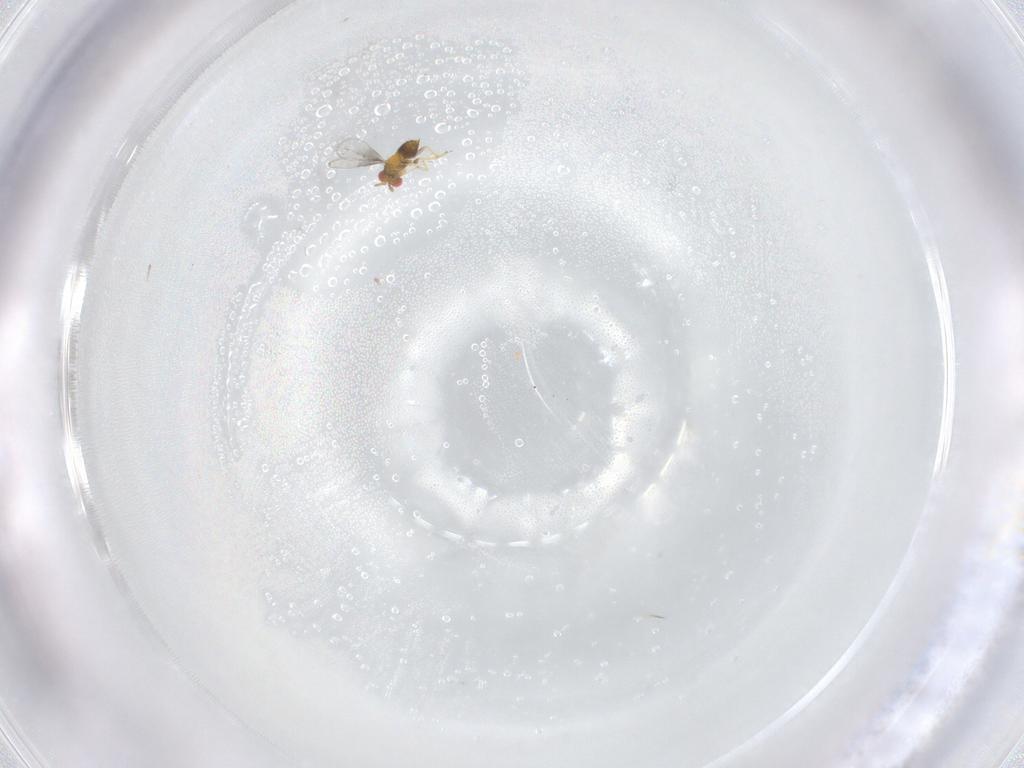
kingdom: Animalia
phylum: Arthropoda
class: Insecta
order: Hymenoptera
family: Trichogrammatidae
